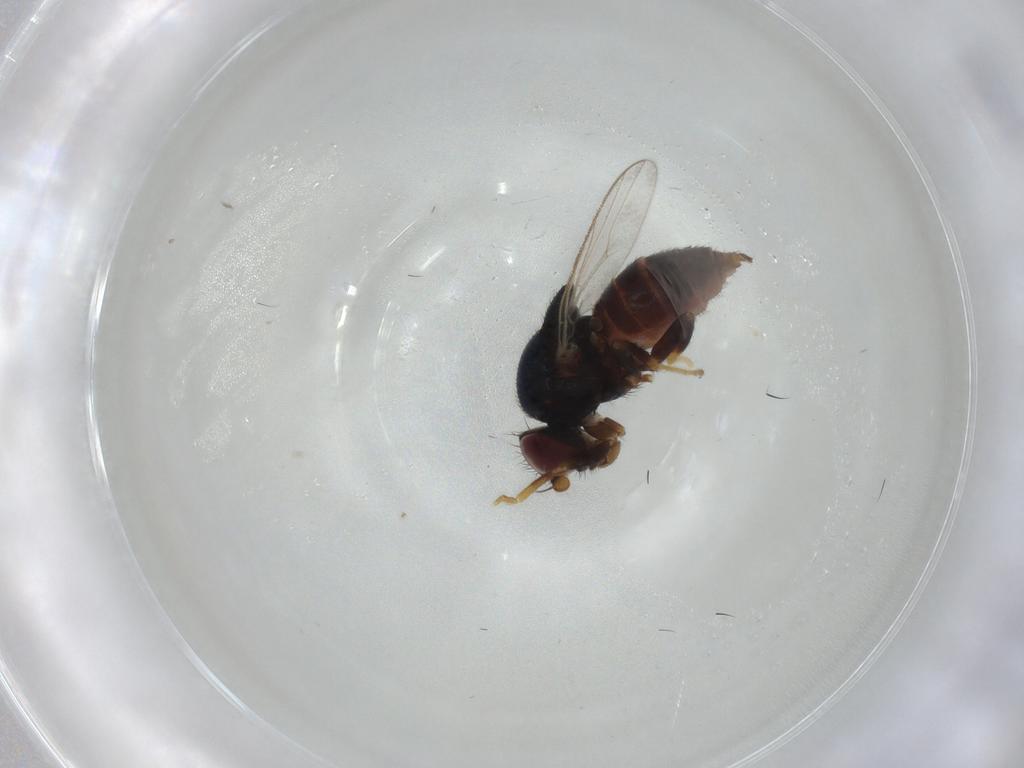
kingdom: Animalia
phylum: Arthropoda
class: Insecta
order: Diptera
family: Chloropidae
